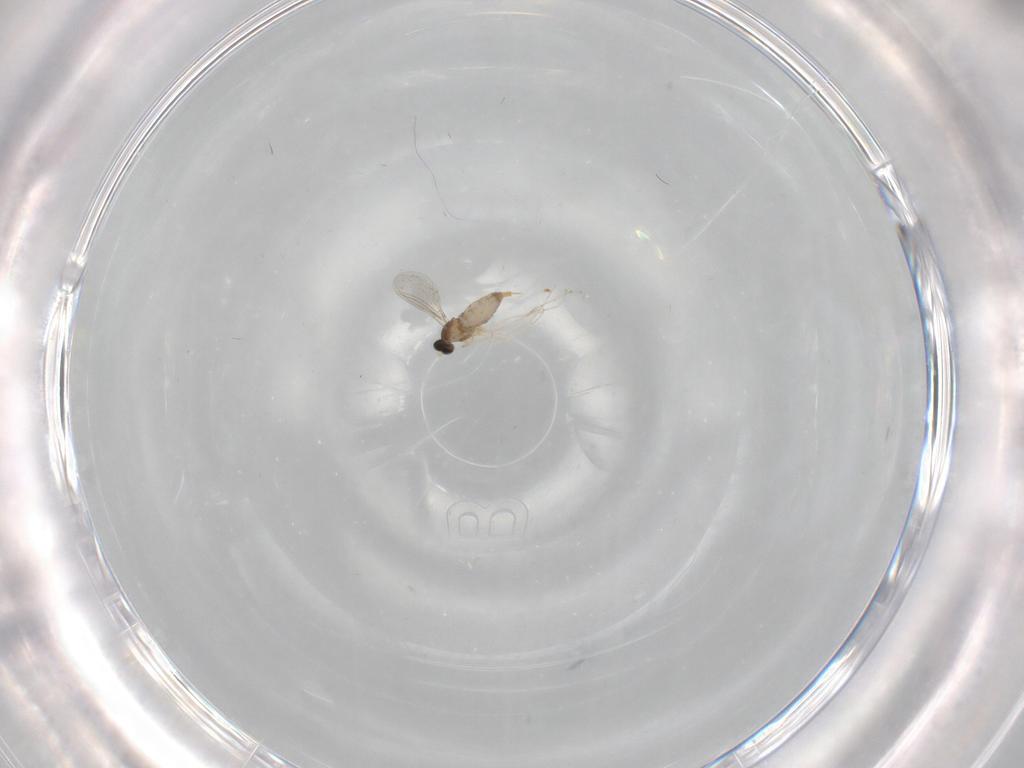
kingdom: Animalia
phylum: Arthropoda
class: Insecta
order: Diptera
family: Cecidomyiidae
